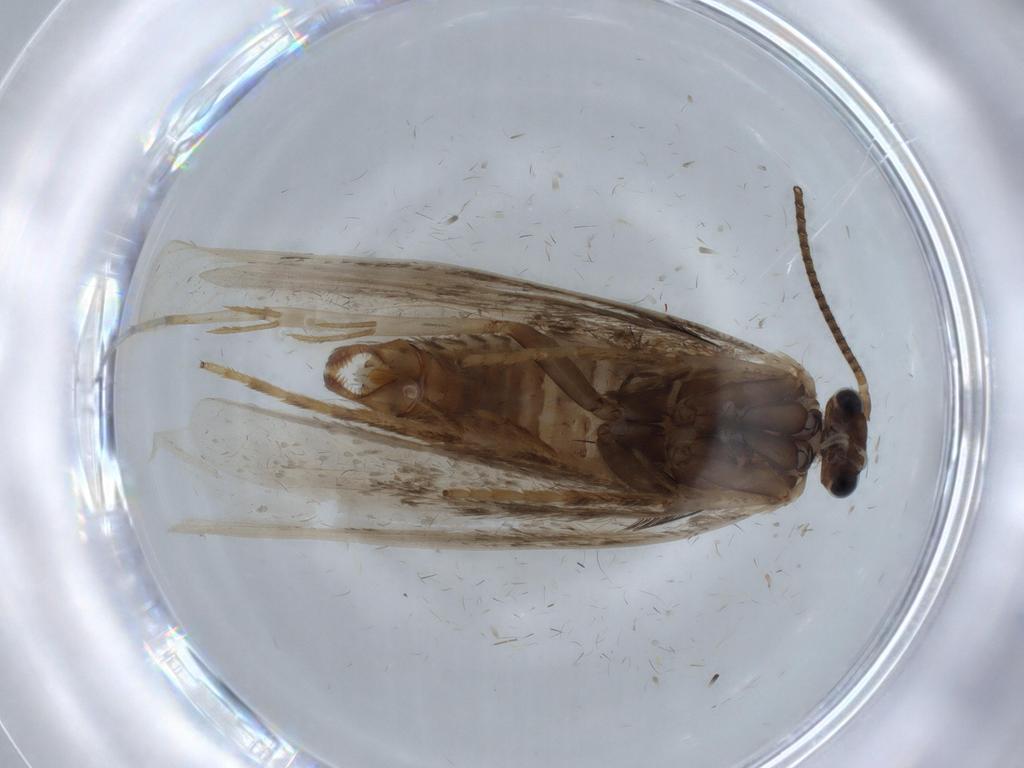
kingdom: Animalia
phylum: Arthropoda
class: Insecta
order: Lepidoptera
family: Incurvariidae
